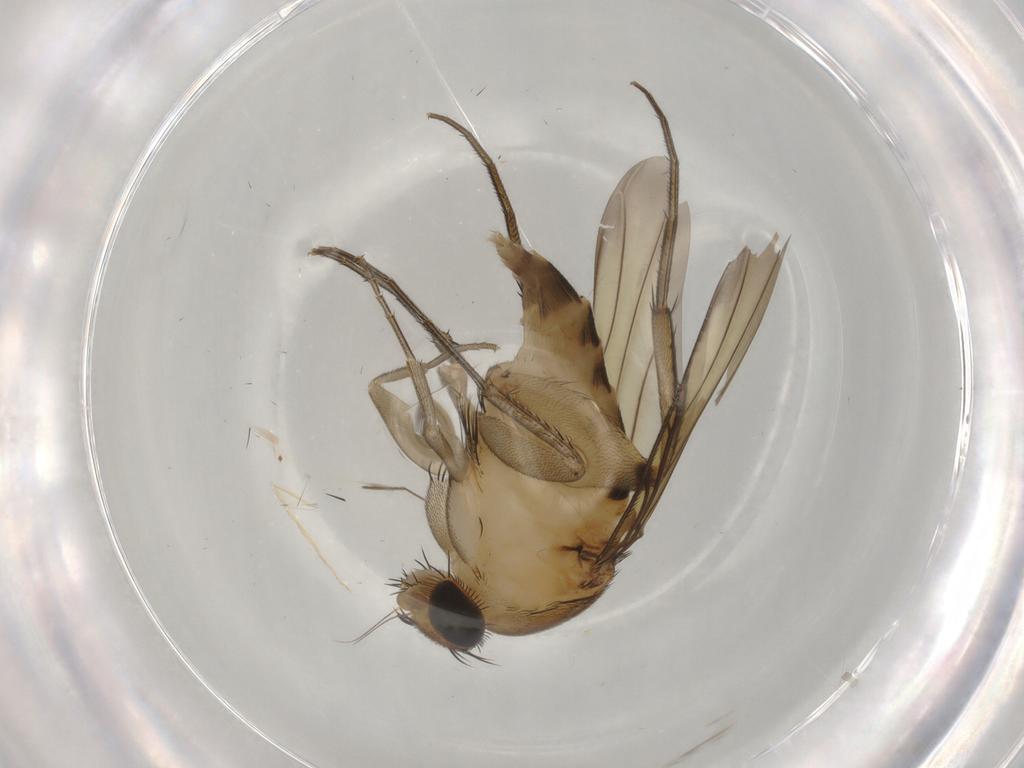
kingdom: Animalia
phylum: Arthropoda
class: Insecta
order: Diptera
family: Phoridae
